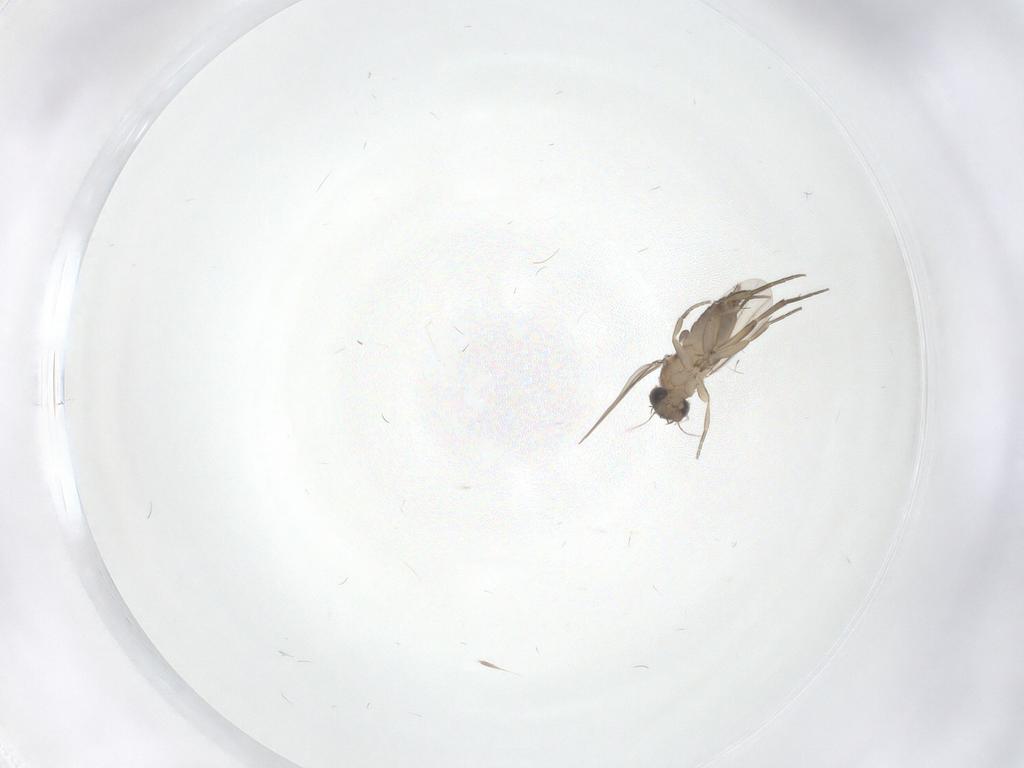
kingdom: Animalia
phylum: Arthropoda
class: Insecta
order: Diptera
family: Phoridae
